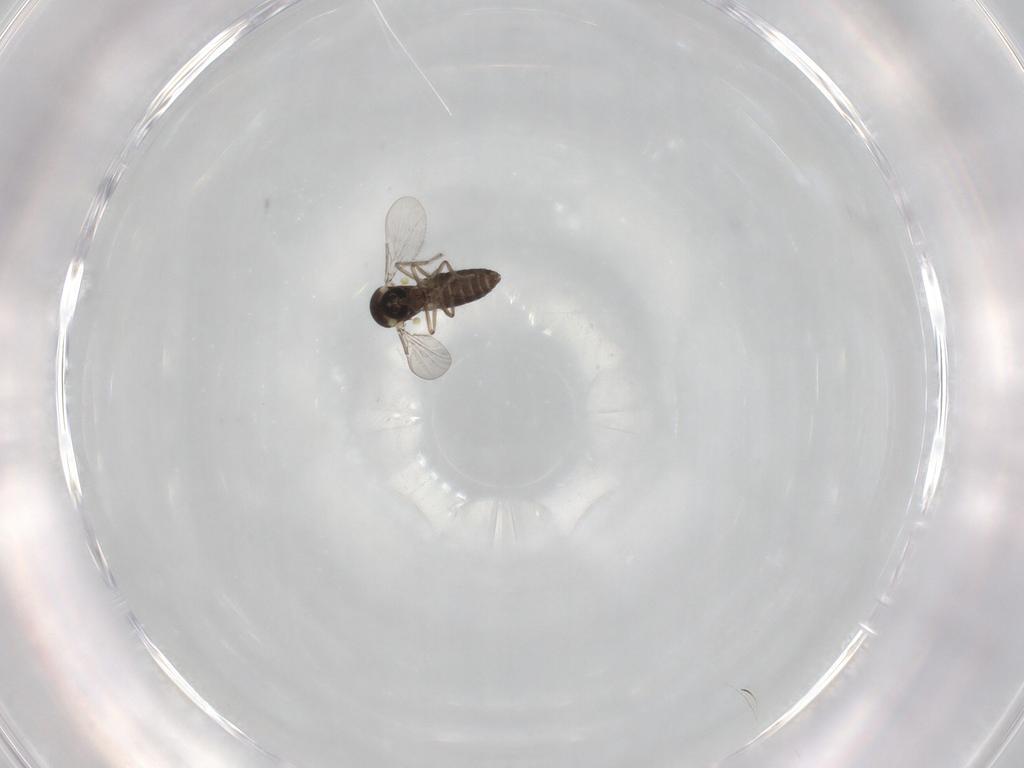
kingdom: Animalia
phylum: Arthropoda
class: Insecta
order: Diptera
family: Ceratopogonidae
